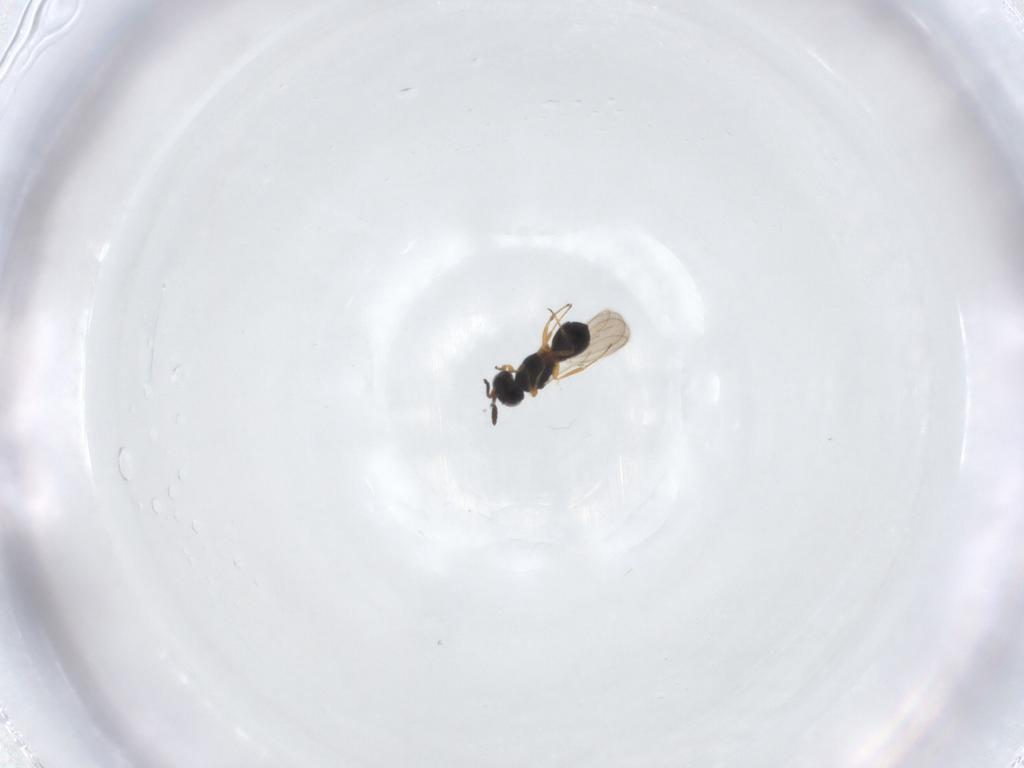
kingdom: Animalia
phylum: Arthropoda
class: Insecta
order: Hymenoptera
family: Scelionidae
